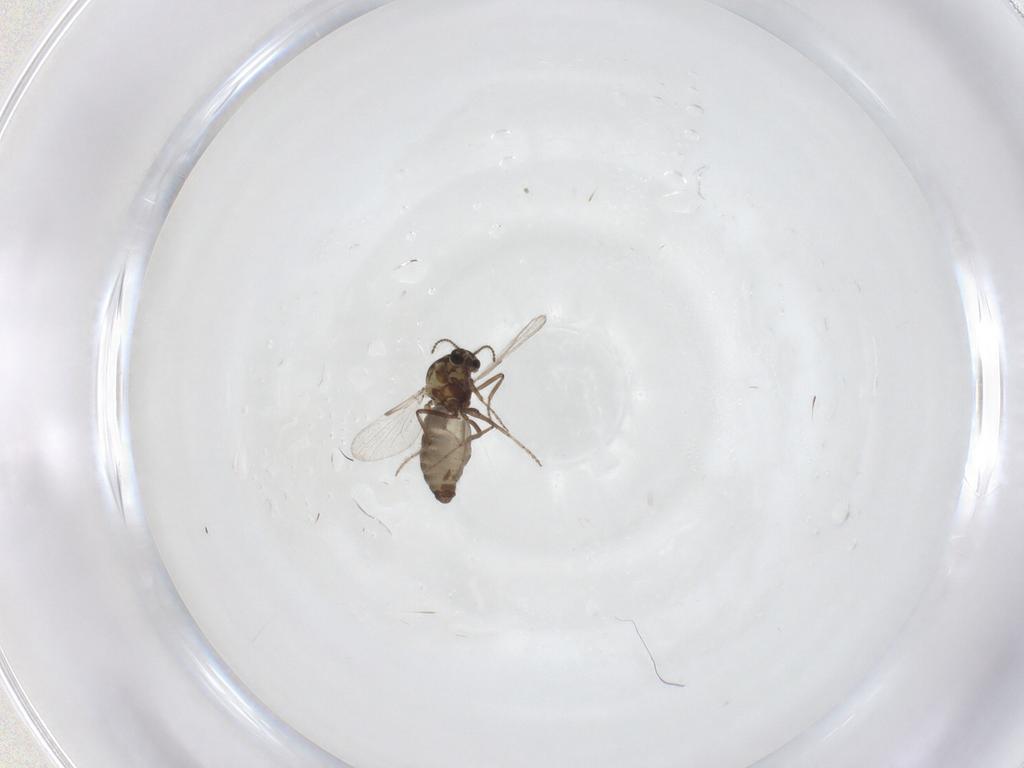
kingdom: Animalia
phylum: Arthropoda
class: Insecta
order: Diptera
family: Ceratopogonidae
